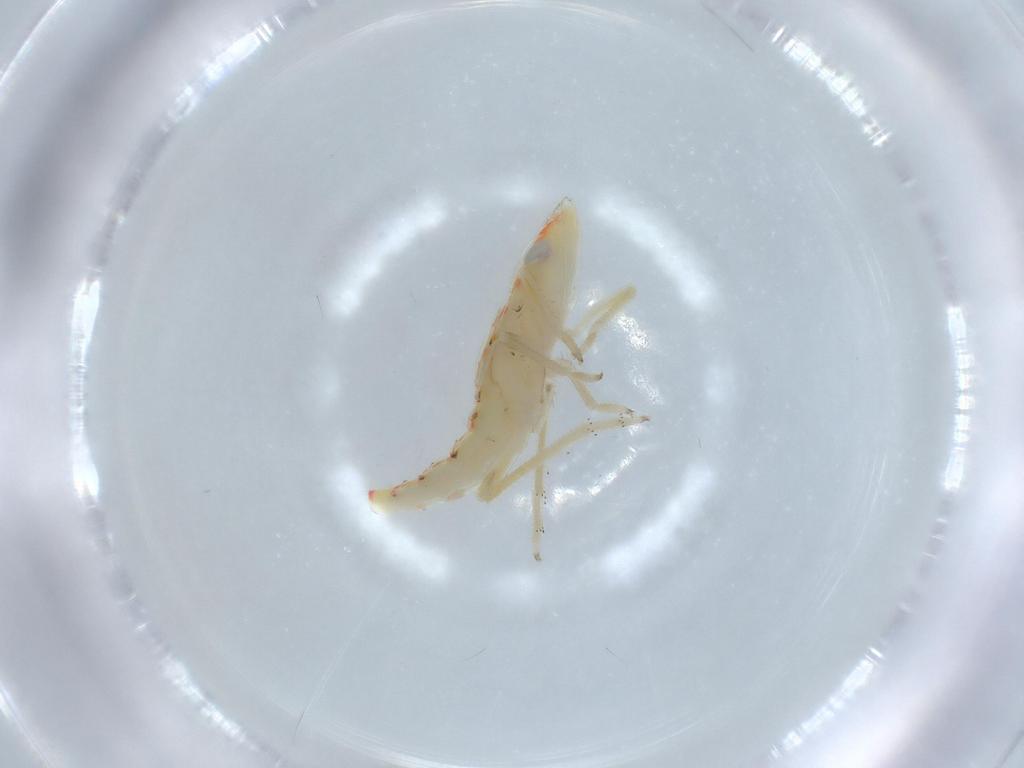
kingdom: Animalia
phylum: Arthropoda
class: Insecta
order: Hemiptera
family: Tropiduchidae
